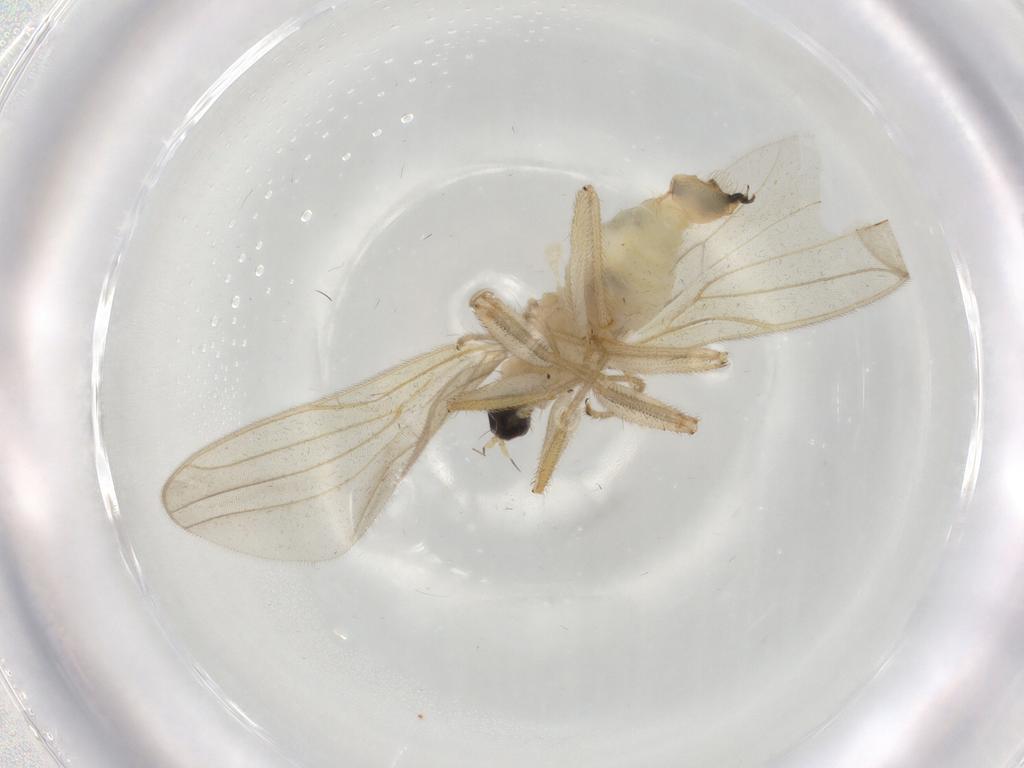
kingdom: Animalia
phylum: Arthropoda
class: Insecta
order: Diptera
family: Hybotidae
